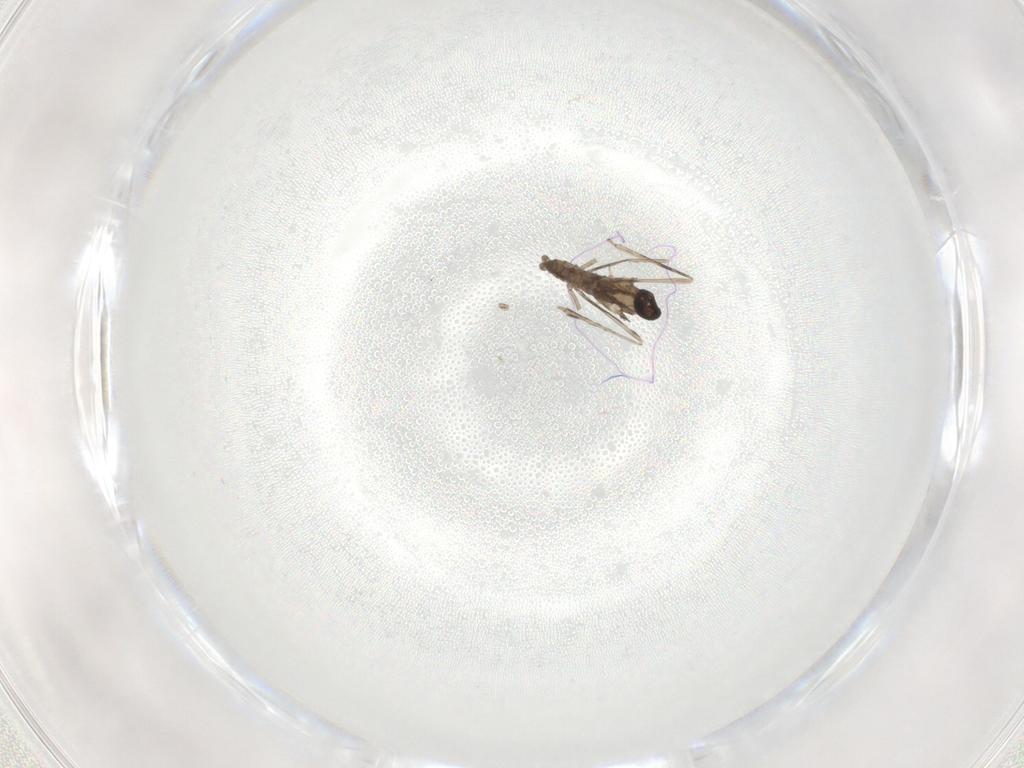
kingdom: Animalia
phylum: Arthropoda
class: Insecta
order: Diptera
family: Cecidomyiidae
